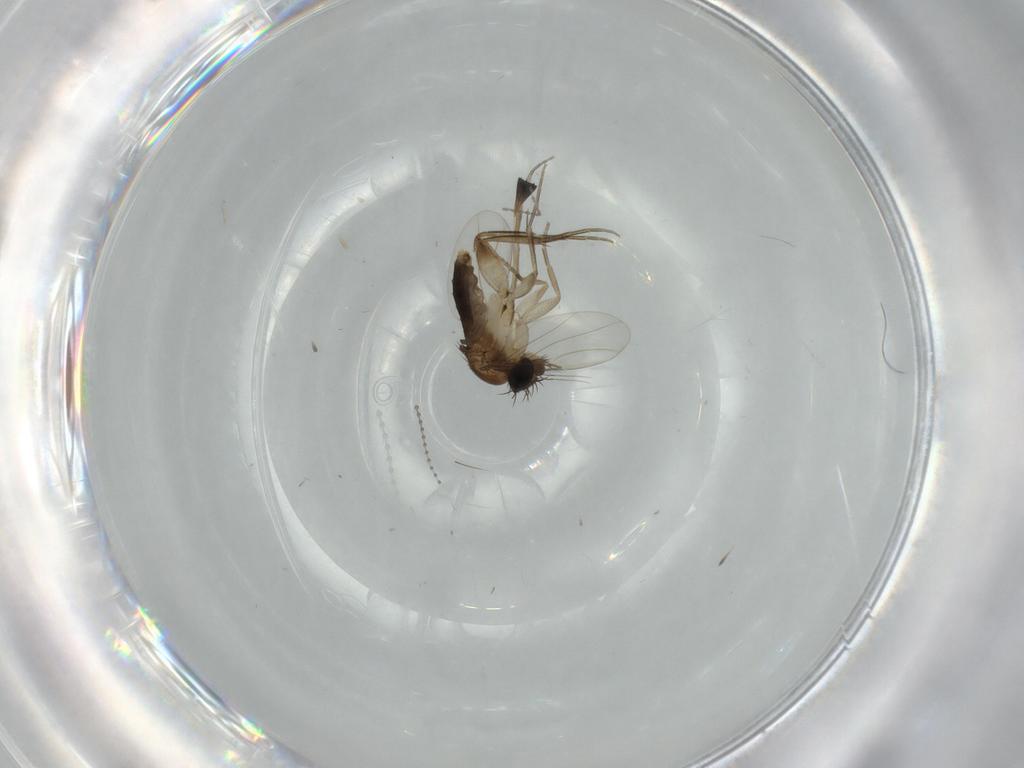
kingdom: Animalia
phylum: Arthropoda
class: Insecta
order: Diptera
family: Cecidomyiidae
